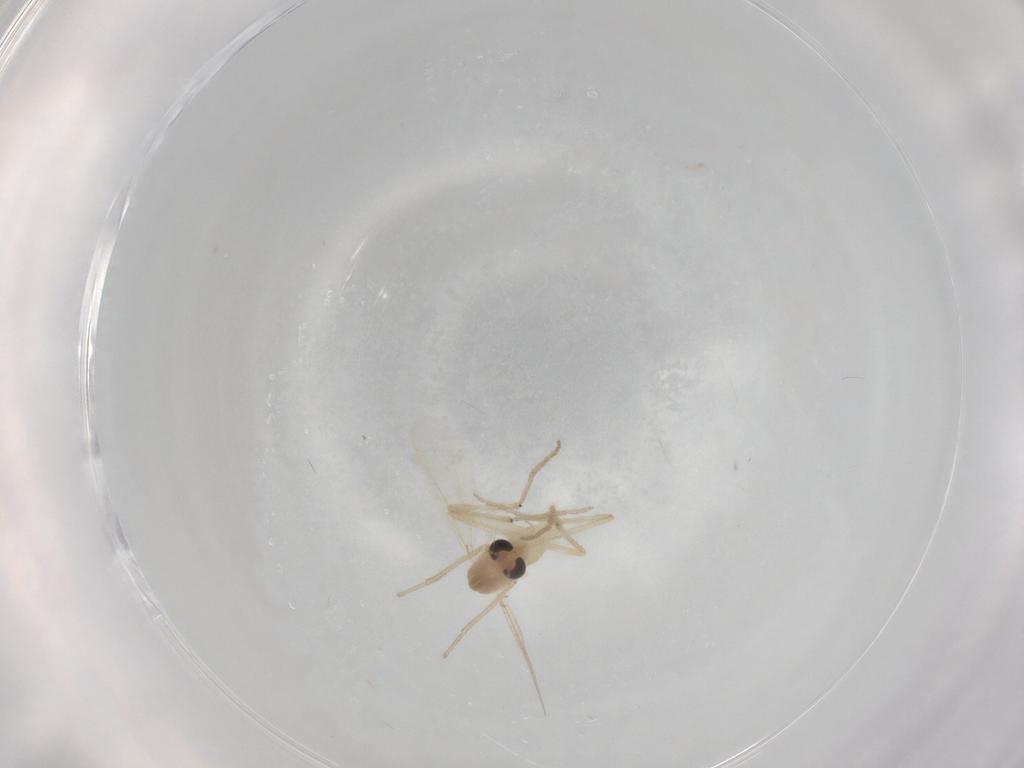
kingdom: Animalia
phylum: Arthropoda
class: Insecta
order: Diptera
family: Chironomidae
